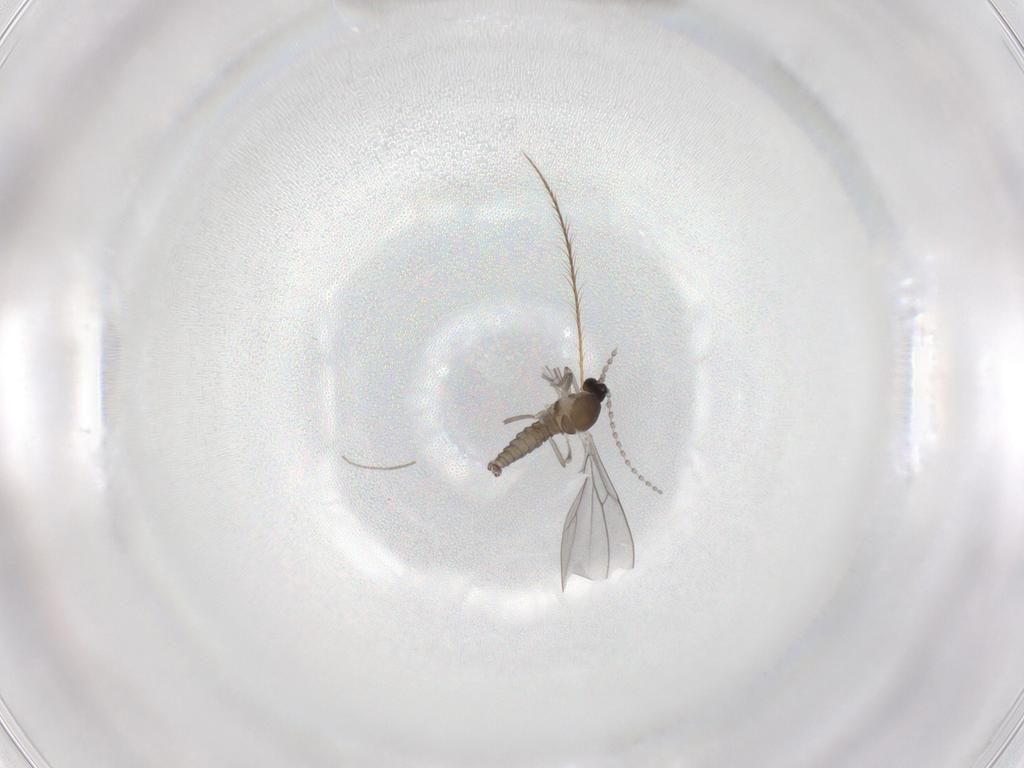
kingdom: Animalia
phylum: Arthropoda
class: Insecta
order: Diptera
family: Cecidomyiidae
